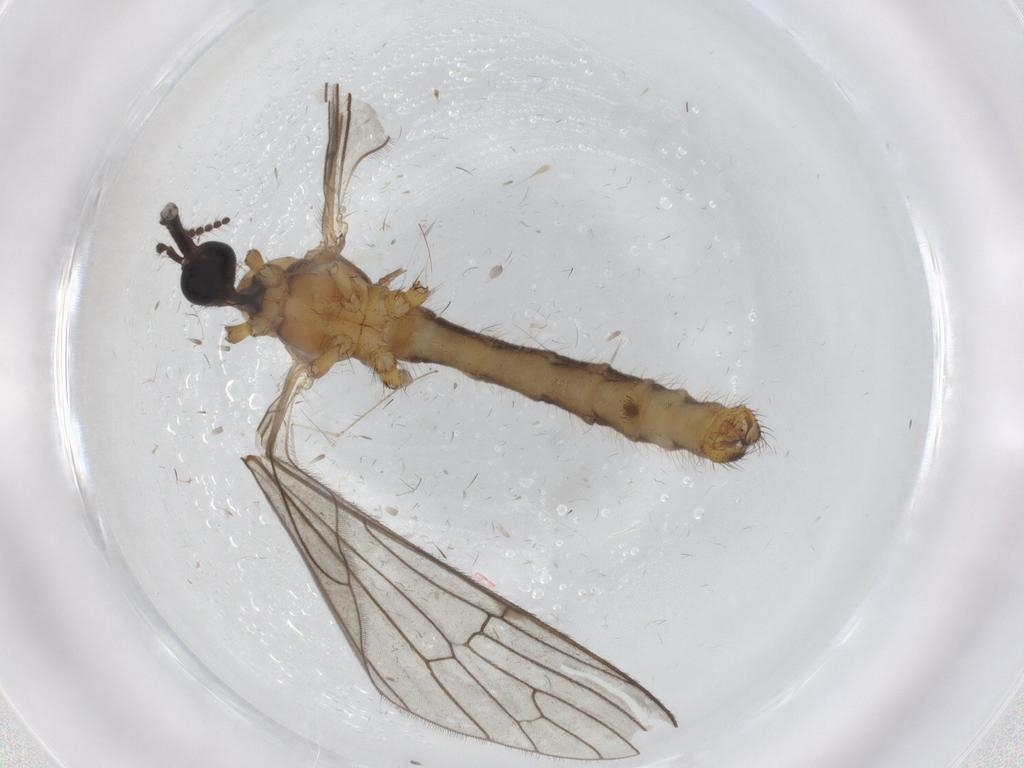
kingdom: Animalia
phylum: Arthropoda
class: Insecta
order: Diptera
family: Limoniidae
